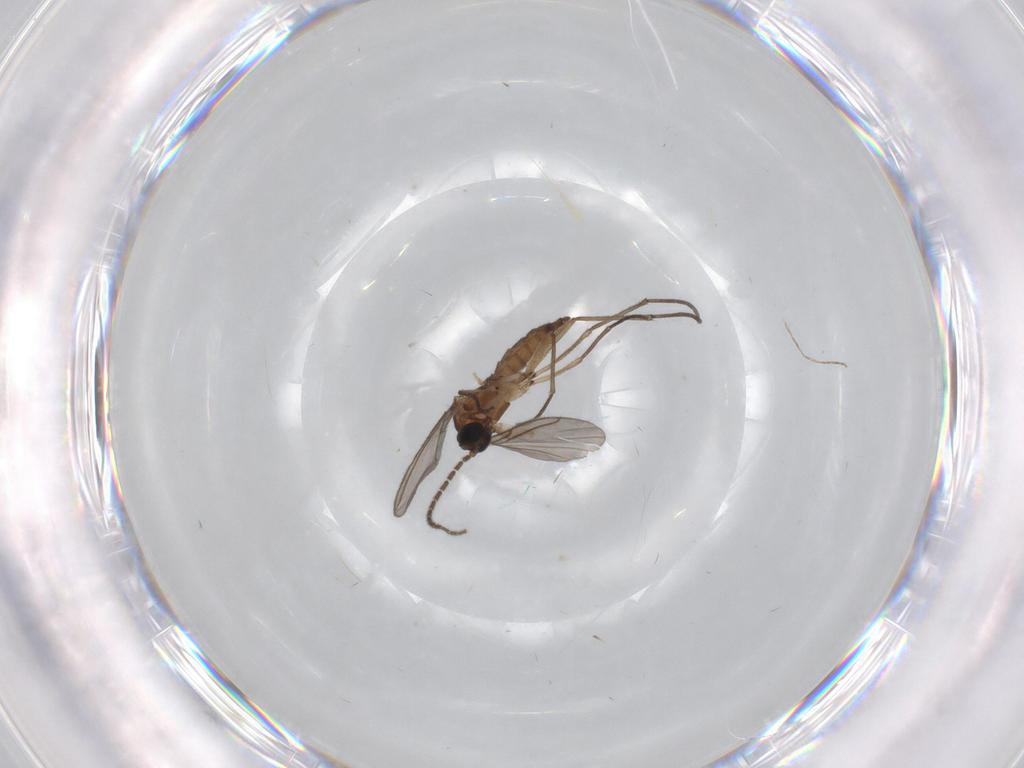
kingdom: Animalia
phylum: Arthropoda
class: Insecta
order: Diptera
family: Sciaridae
